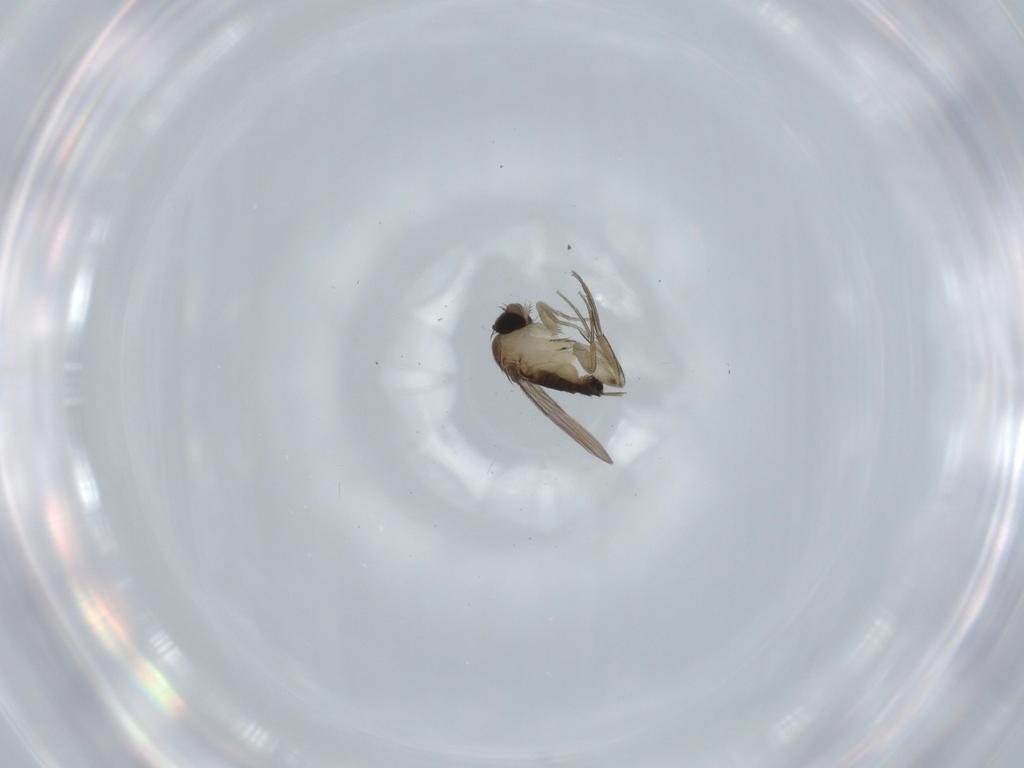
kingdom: Animalia
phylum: Arthropoda
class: Insecta
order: Diptera
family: Phoridae
